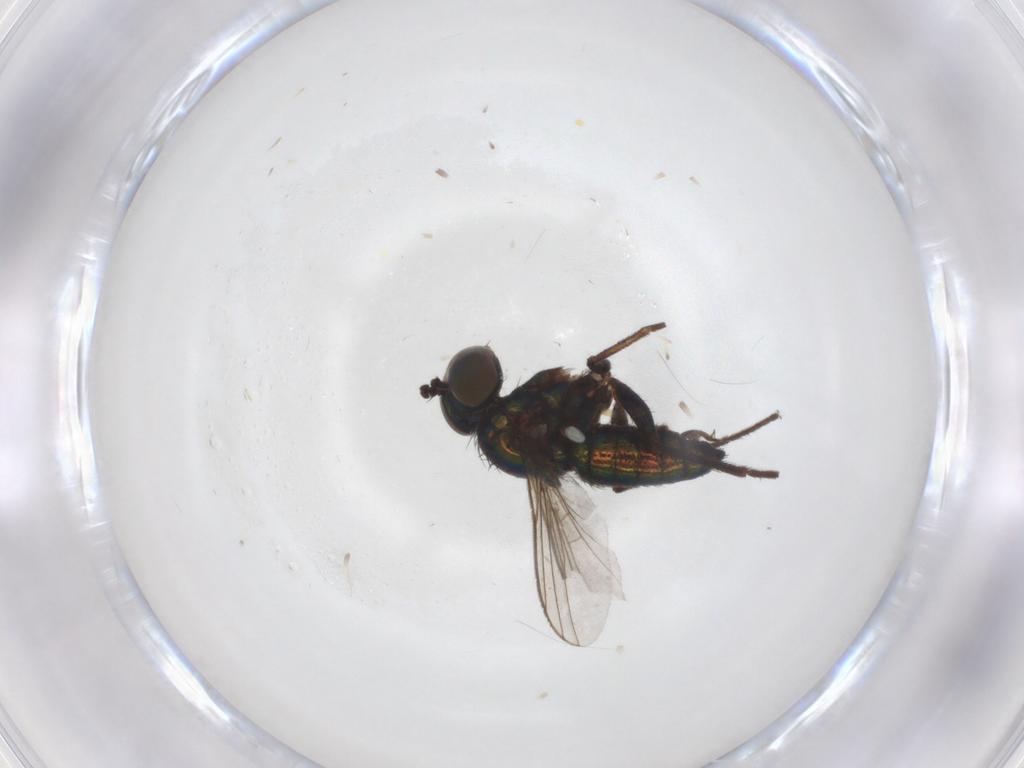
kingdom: Animalia
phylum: Arthropoda
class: Insecta
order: Diptera
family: Dolichopodidae
